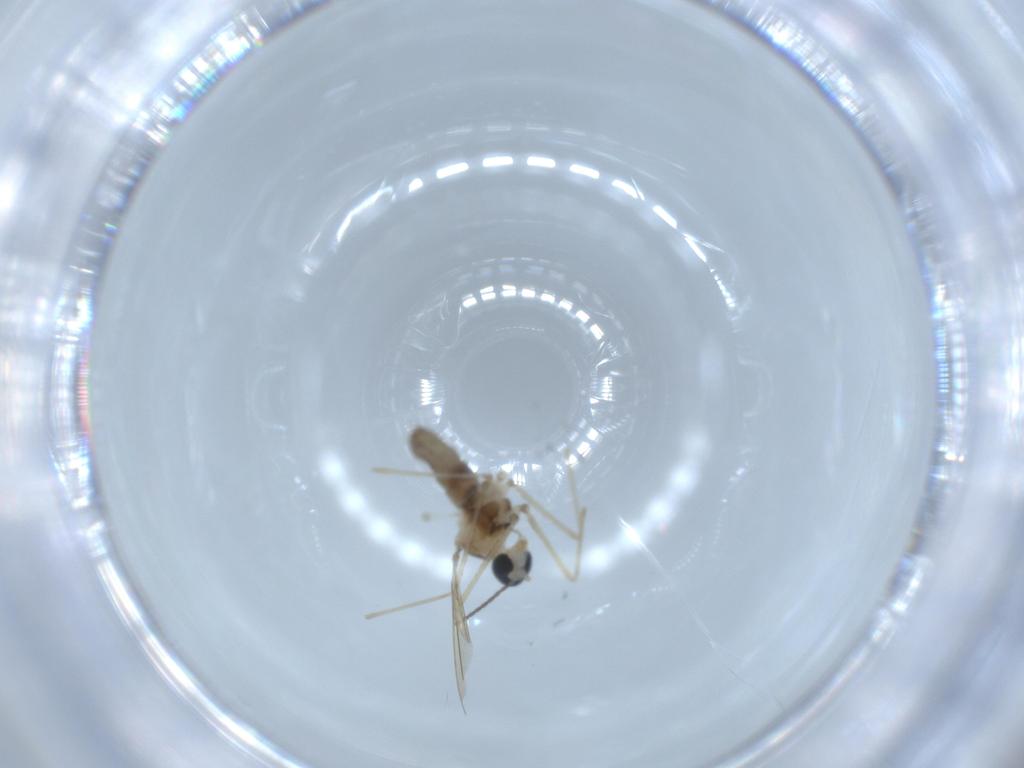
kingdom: Animalia
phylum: Arthropoda
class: Insecta
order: Diptera
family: Cecidomyiidae
